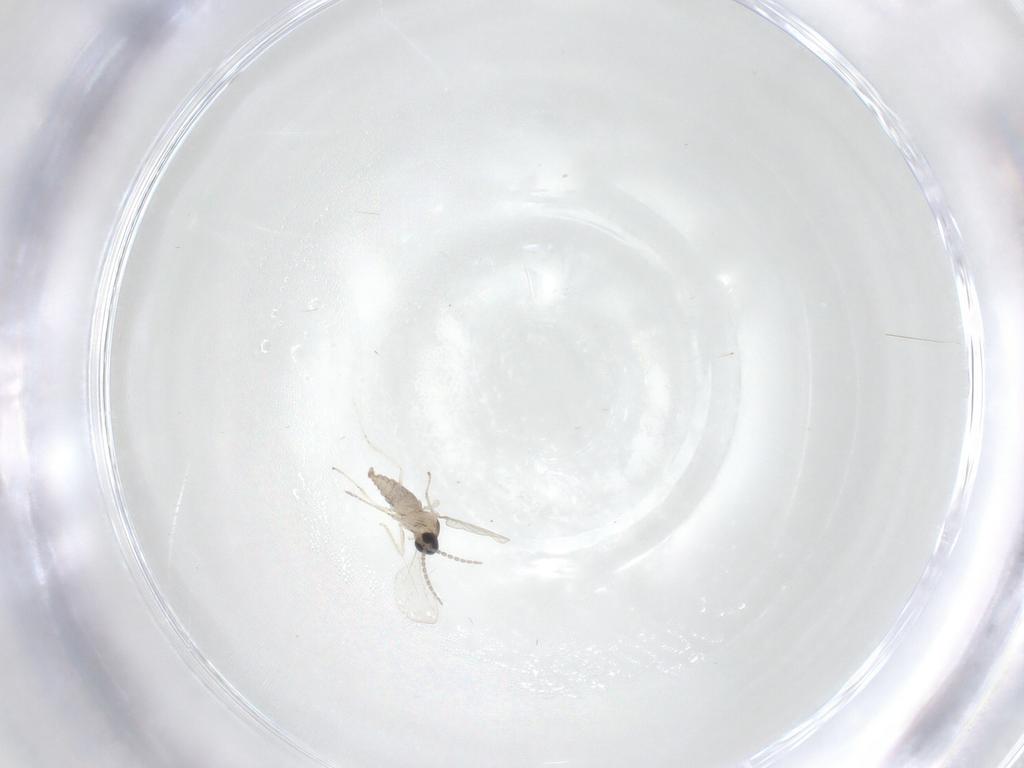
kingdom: Animalia
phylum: Arthropoda
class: Insecta
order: Diptera
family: Cecidomyiidae
